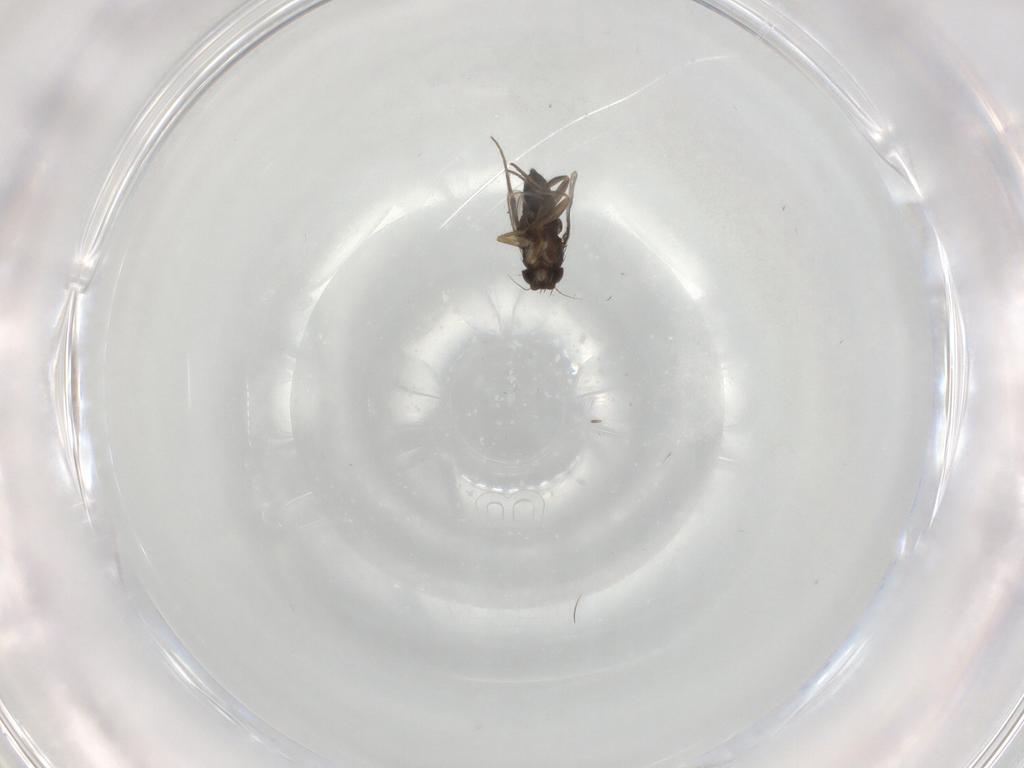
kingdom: Animalia
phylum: Arthropoda
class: Insecta
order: Diptera
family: Phoridae
